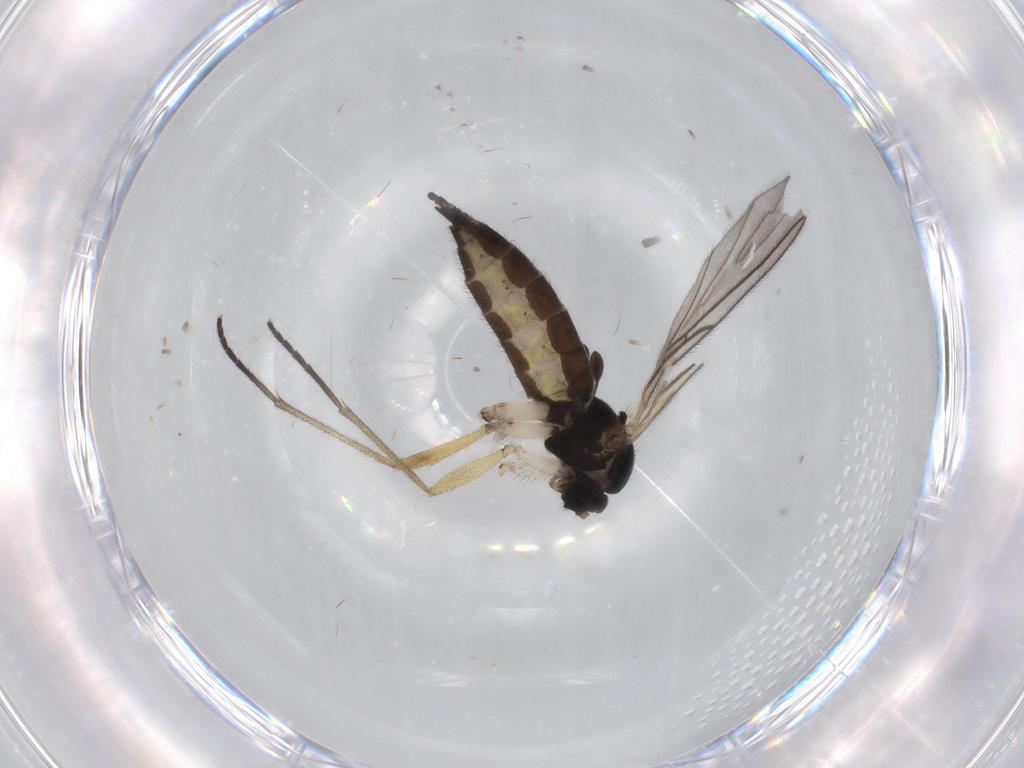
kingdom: Animalia
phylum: Arthropoda
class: Insecta
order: Diptera
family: Sciaridae
